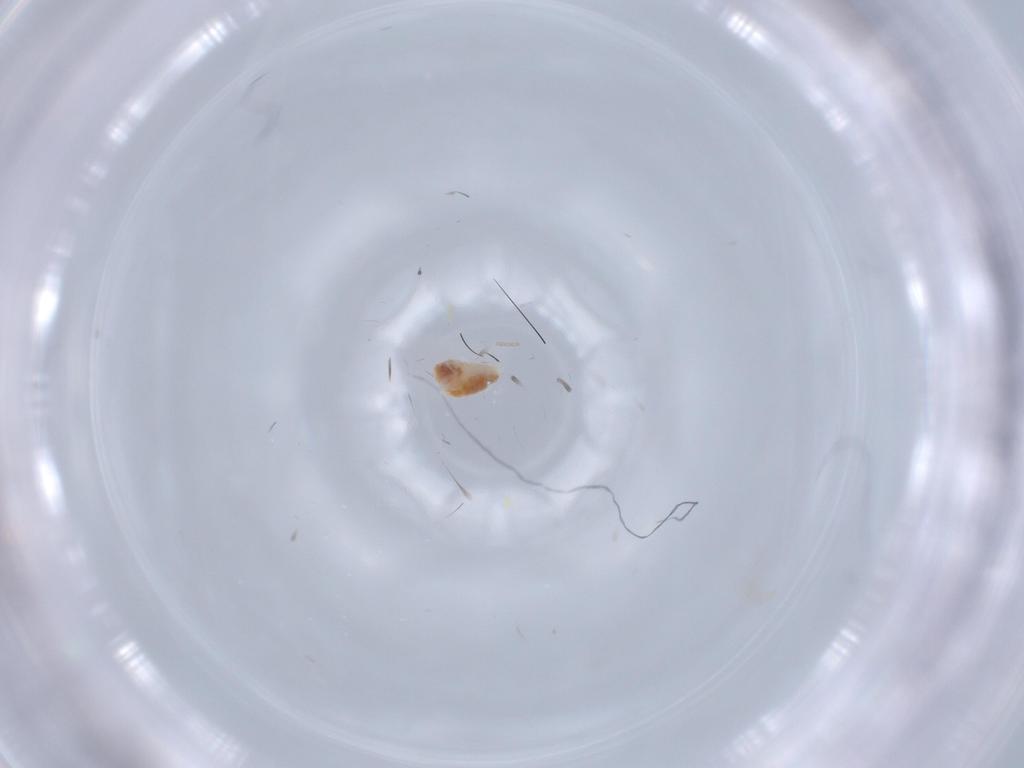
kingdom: Animalia
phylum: Arthropoda
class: Arachnida
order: Trombidiformes
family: Eupodidae
